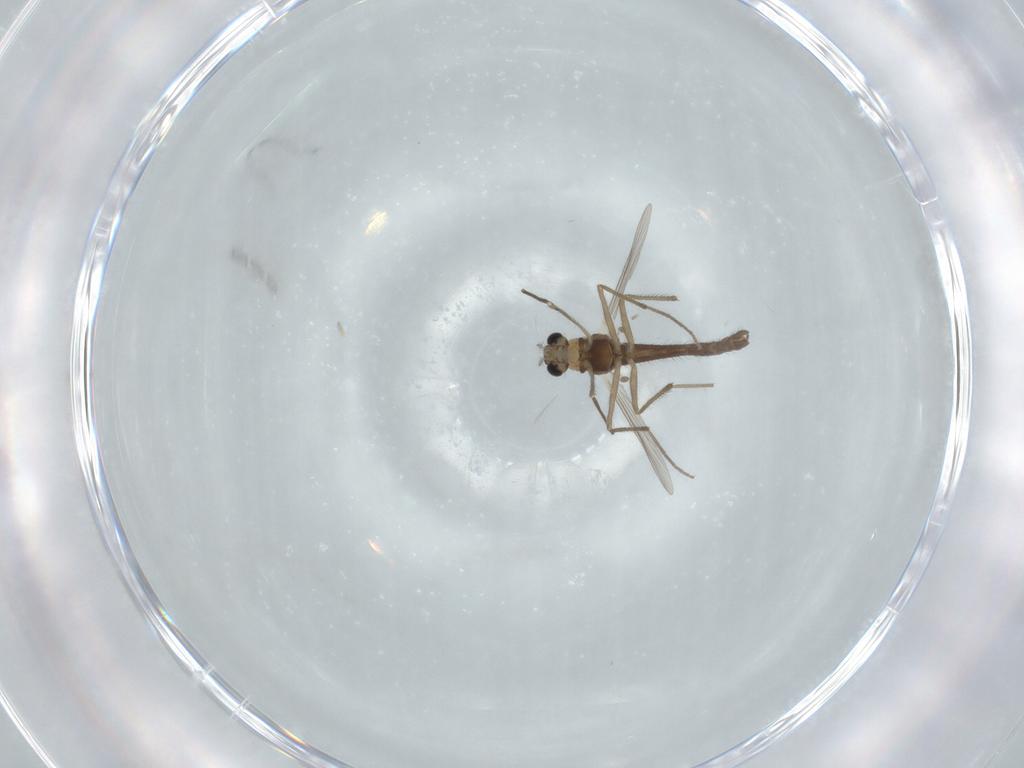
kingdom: Animalia
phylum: Arthropoda
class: Insecta
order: Diptera
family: Chironomidae
